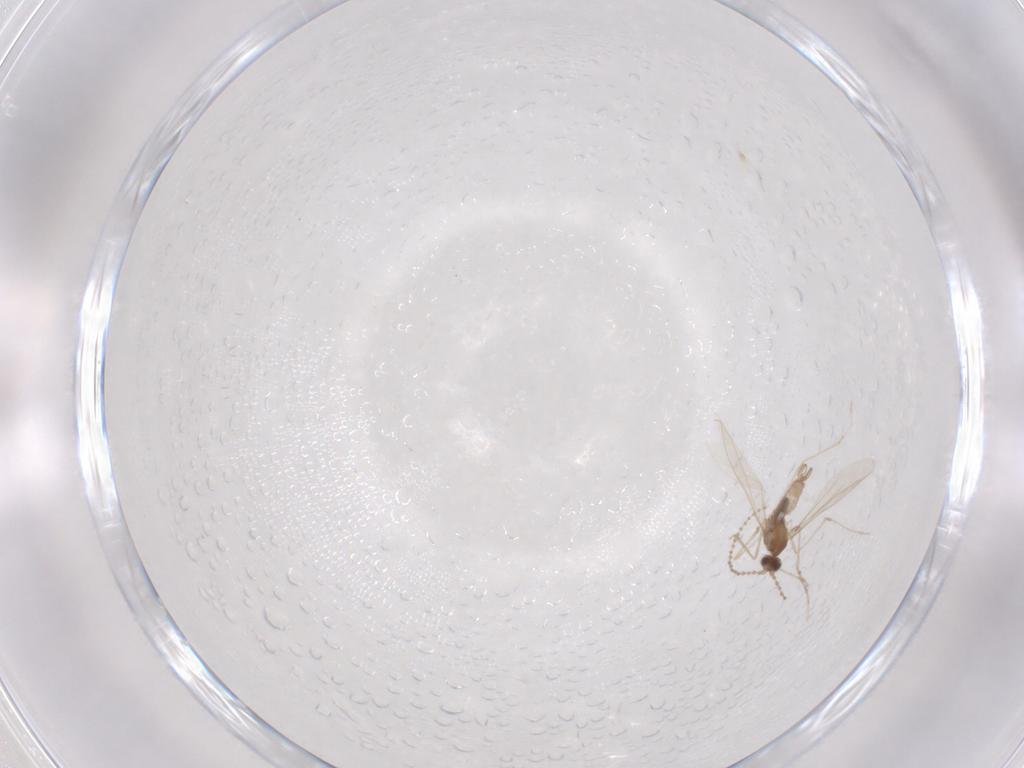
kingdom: Animalia
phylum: Arthropoda
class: Insecta
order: Diptera
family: Cecidomyiidae
